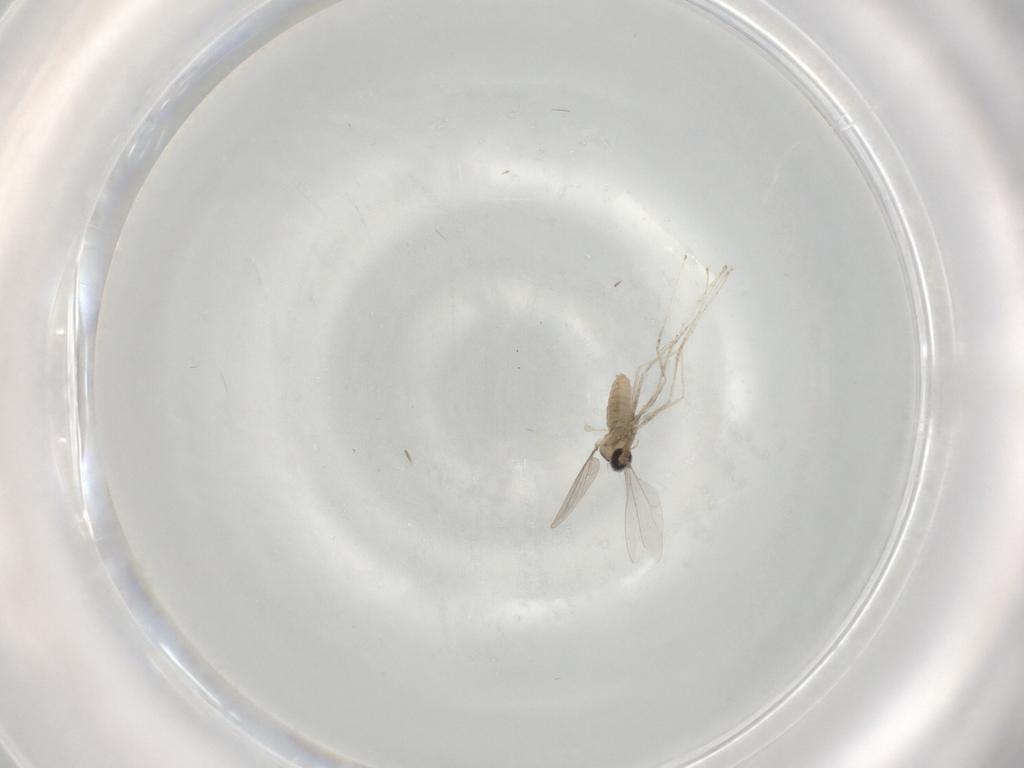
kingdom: Animalia
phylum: Arthropoda
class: Insecta
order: Diptera
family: Cecidomyiidae
